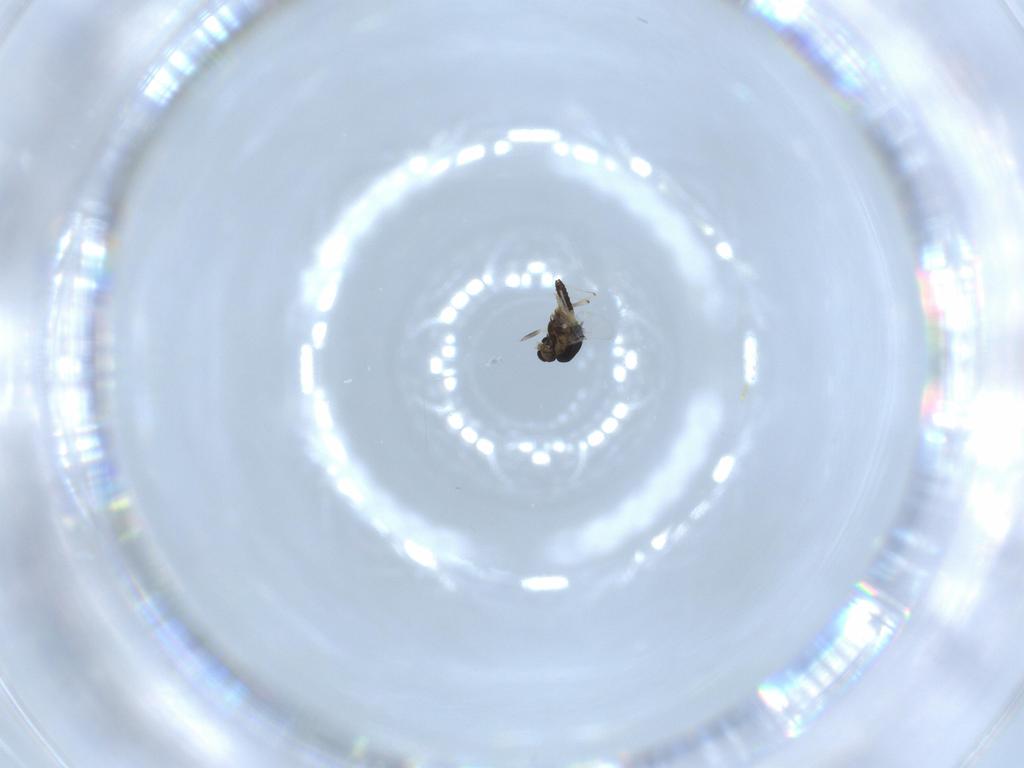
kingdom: Animalia
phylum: Arthropoda
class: Insecta
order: Diptera
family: Chironomidae
